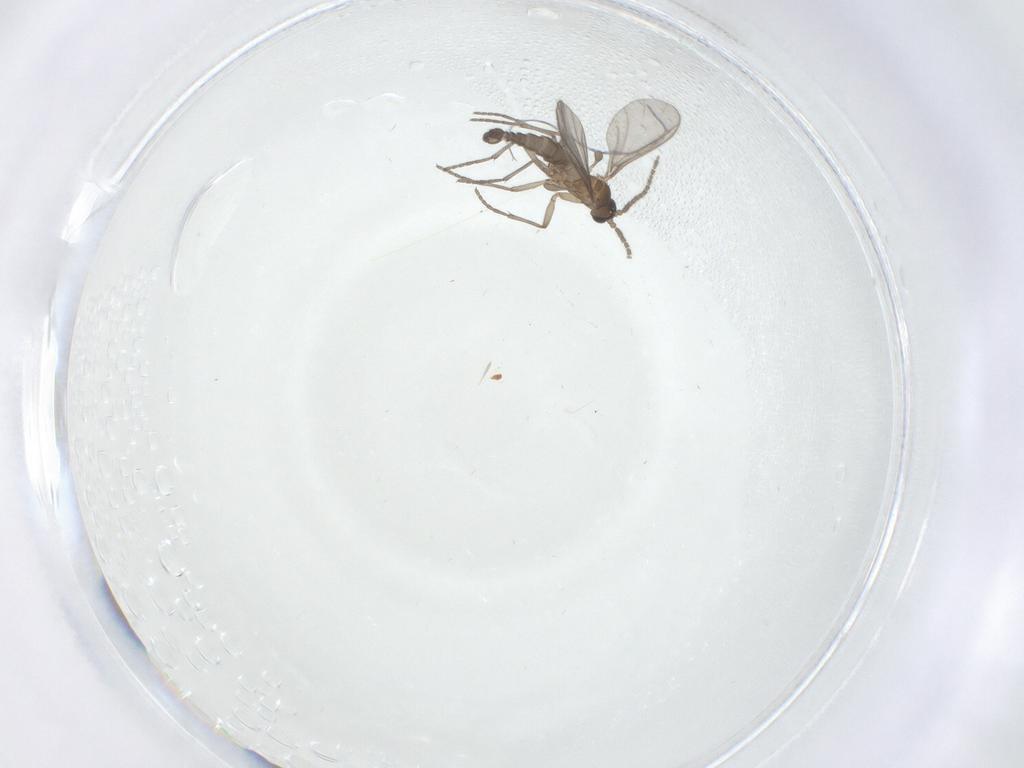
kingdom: Animalia
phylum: Arthropoda
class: Insecta
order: Diptera
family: Sciaridae
